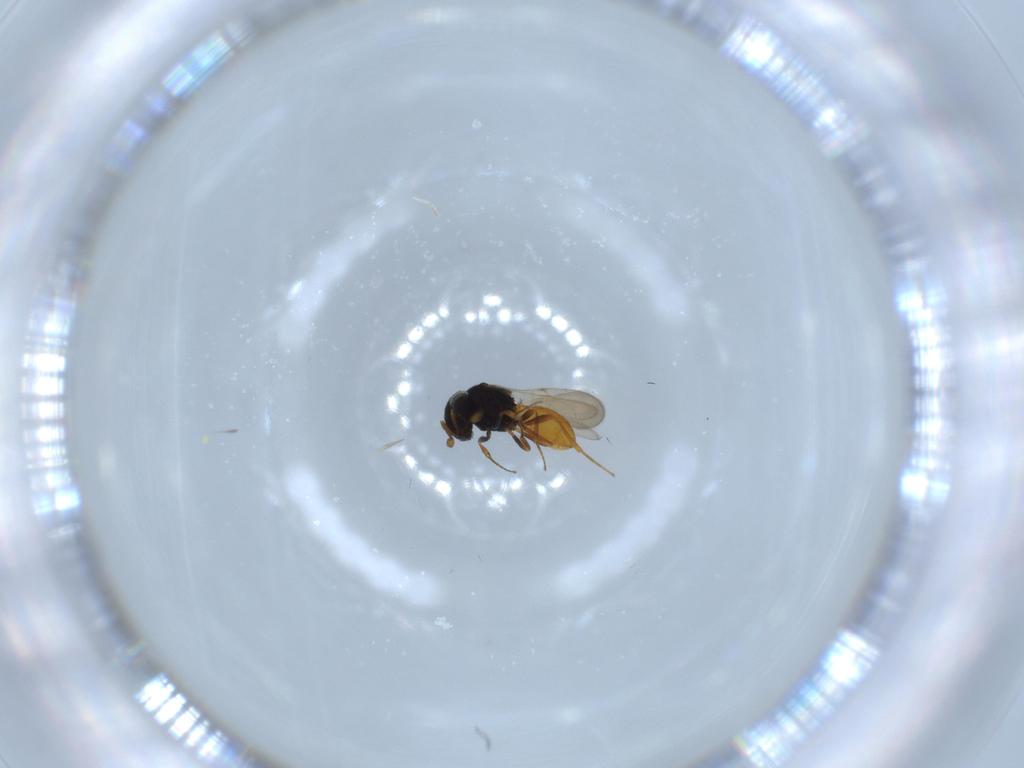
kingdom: Animalia
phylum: Arthropoda
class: Insecta
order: Hymenoptera
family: Scelionidae
